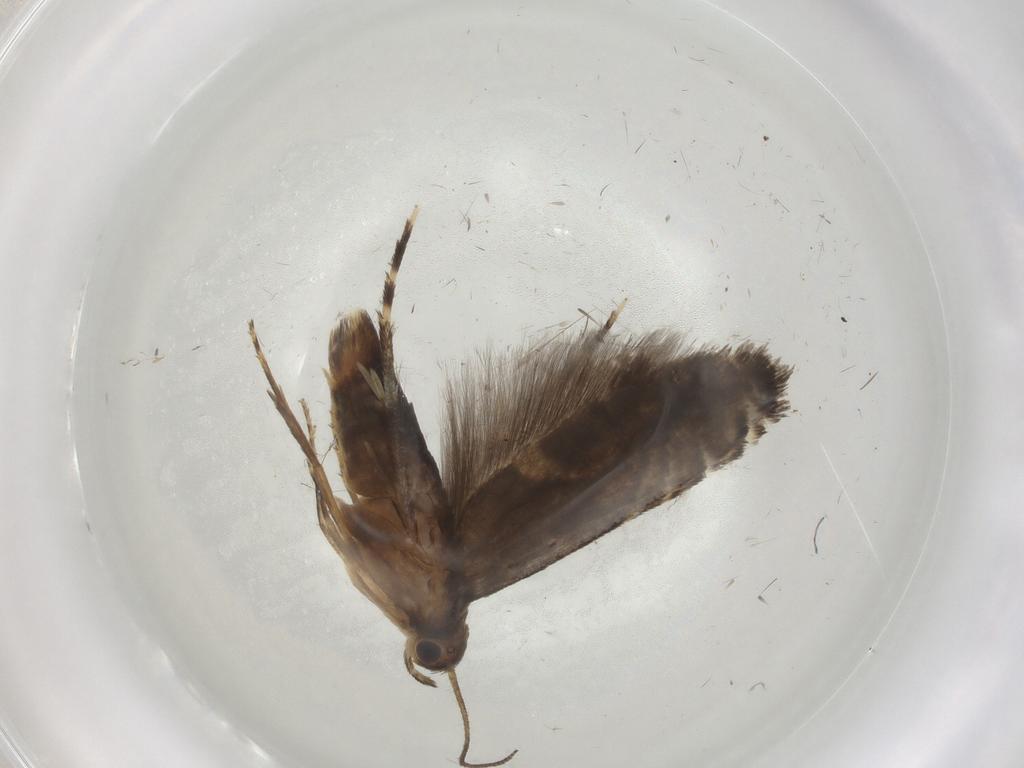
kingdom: Animalia
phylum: Arthropoda
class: Insecta
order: Lepidoptera
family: Glyphipterigidae
